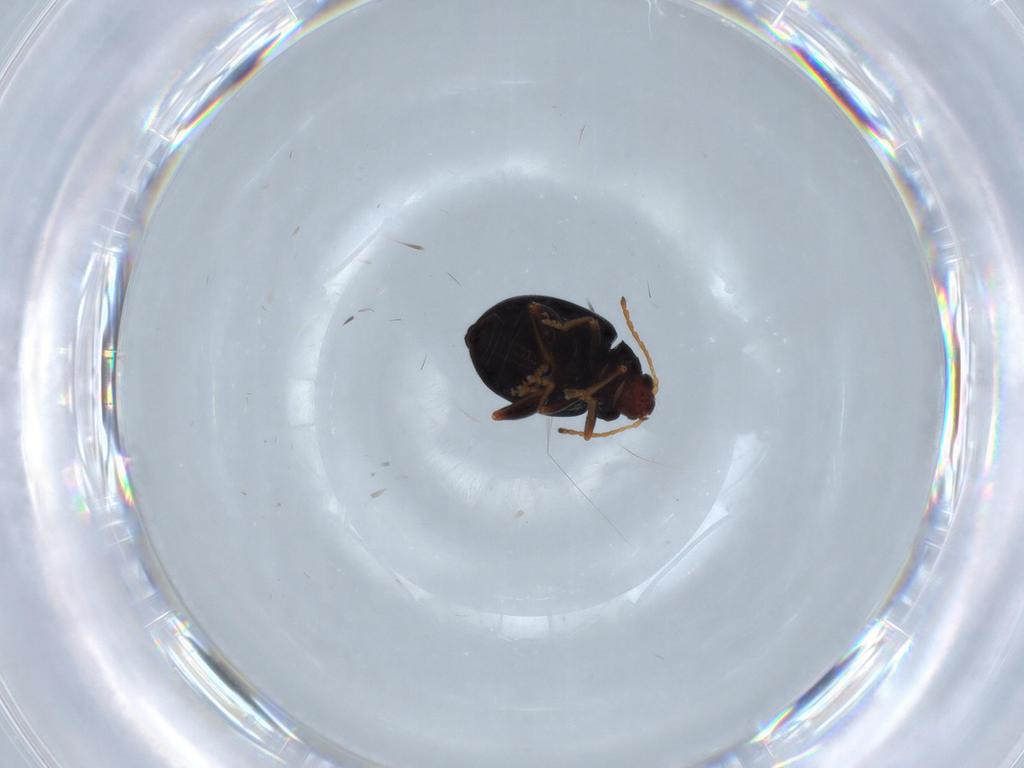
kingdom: Animalia
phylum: Arthropoda
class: Insecta
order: Coleoptera
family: Chrysomelidae
